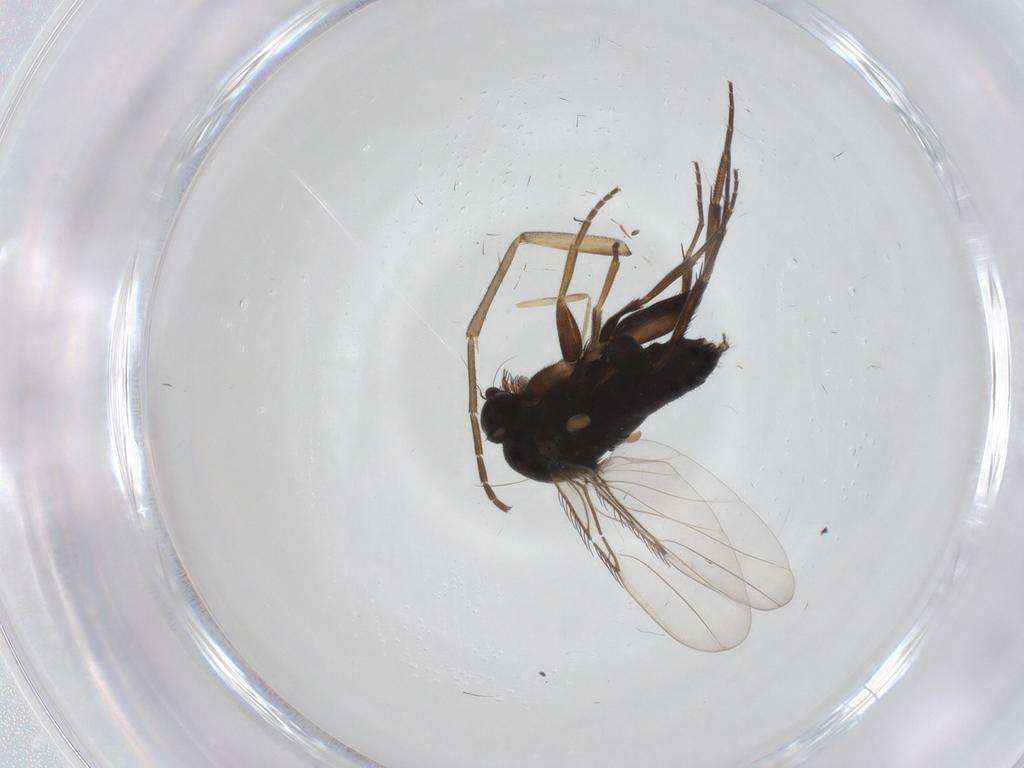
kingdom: Animalia
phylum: Arthropoda
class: Insecta
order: Diptera
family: Phoridae
